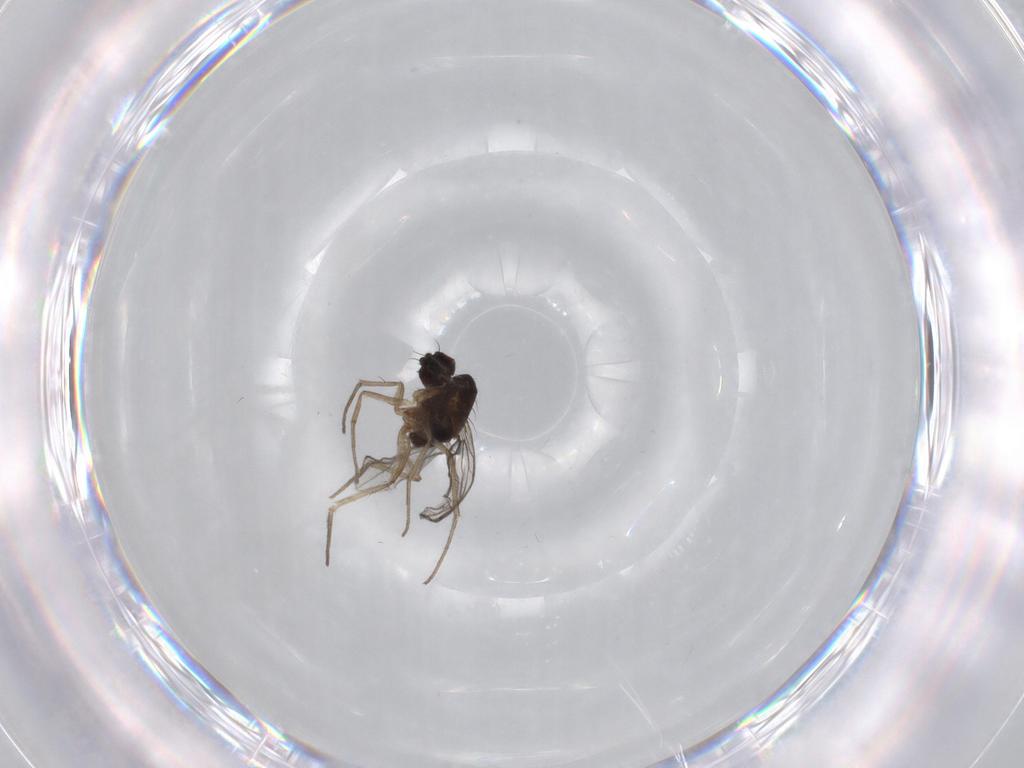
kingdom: Animalia
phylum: Arthropoda
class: Insecta
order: Diptera
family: Dolichopodidae
